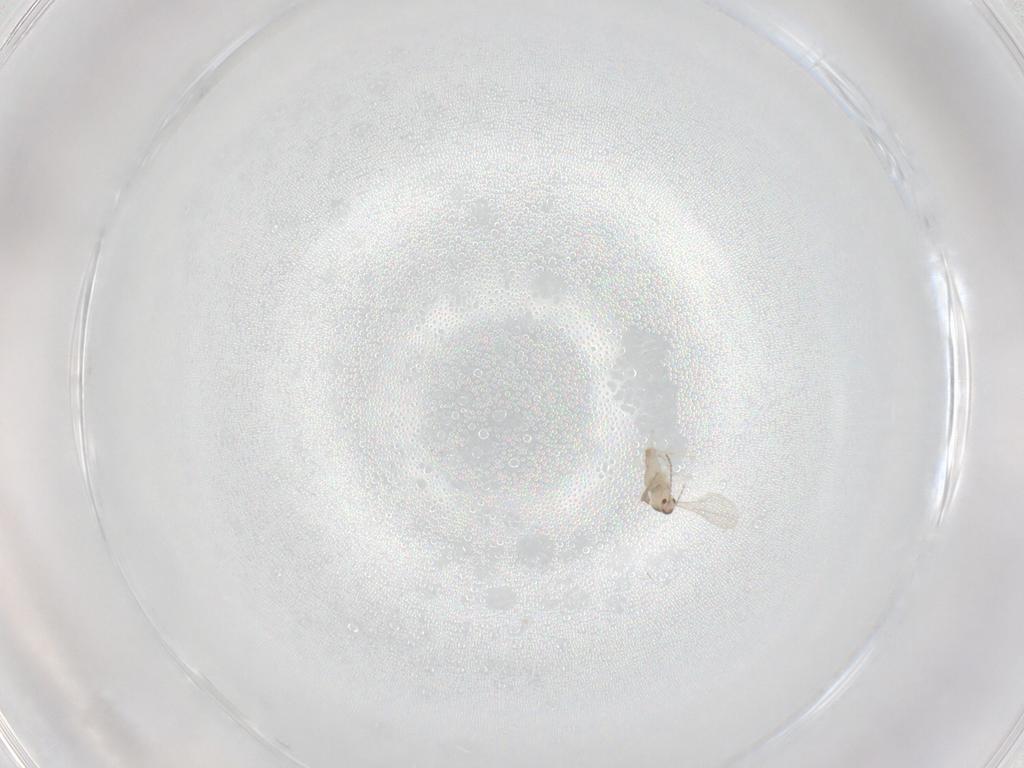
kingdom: Animalia
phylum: Arthropoda
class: Insecta
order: Diptera
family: Cecidomyiidae
